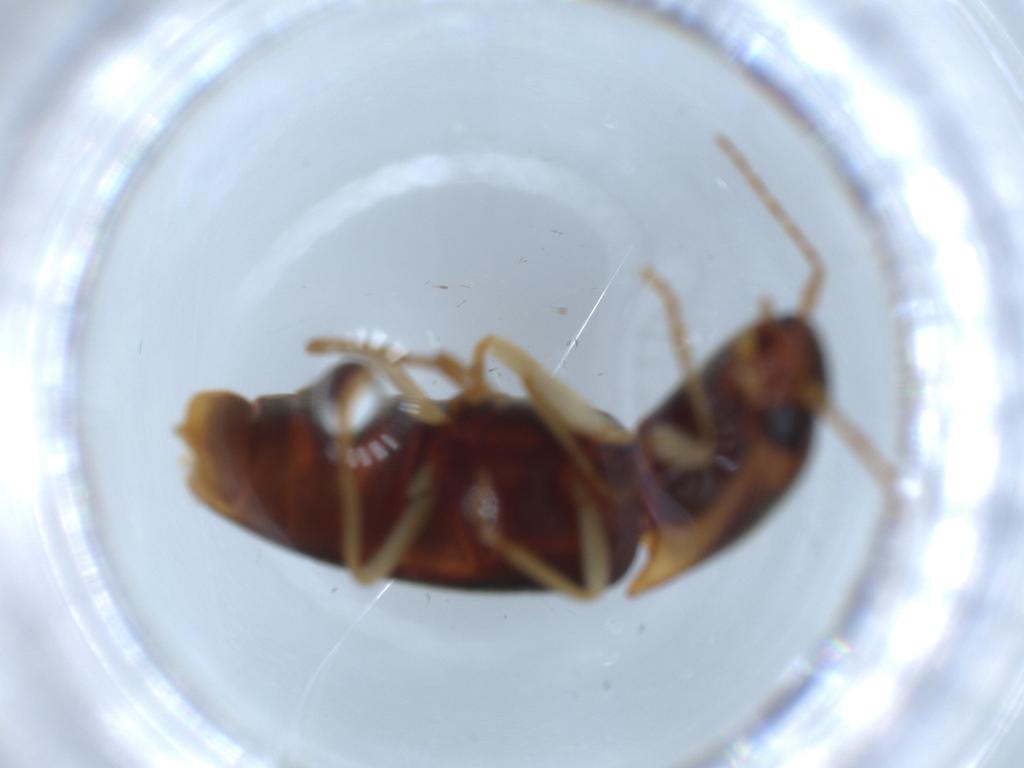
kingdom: Animalia
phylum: Arthropoda
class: Insecta
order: Coleoptera
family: Chrysomelidae
